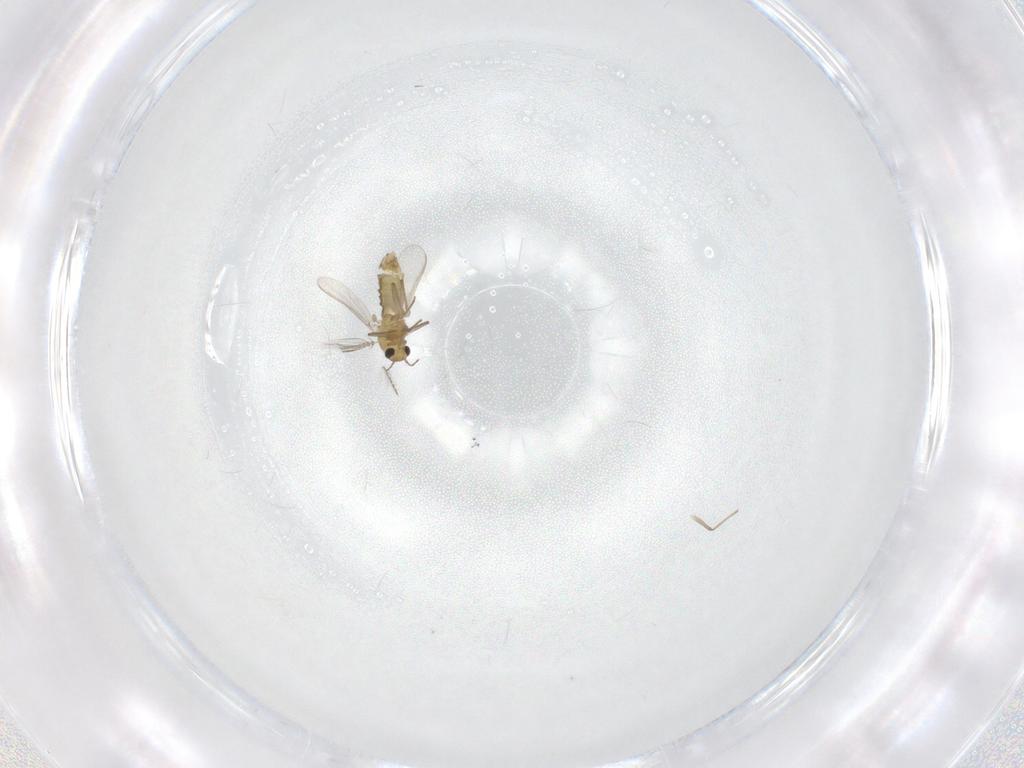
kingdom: Animalia
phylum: Arthropoda
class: Insecta
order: Diptera
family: Chironomidae
